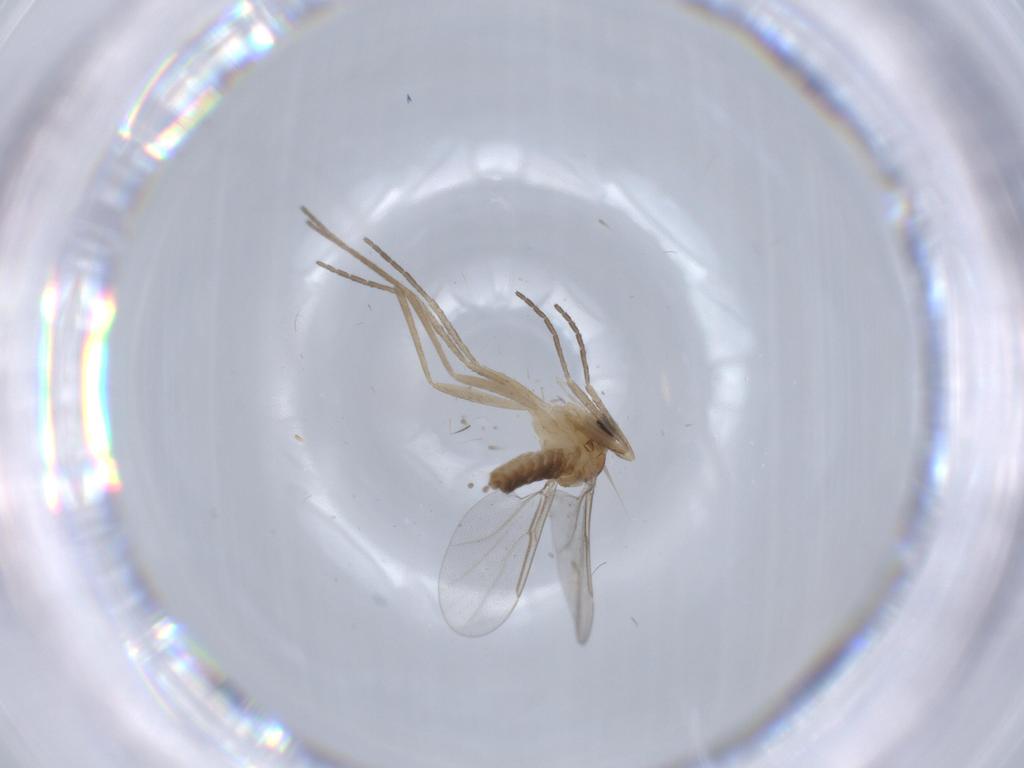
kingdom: Animalia
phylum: Arthropoda
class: Insecta
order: Diptera
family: Cecidomyiidae
